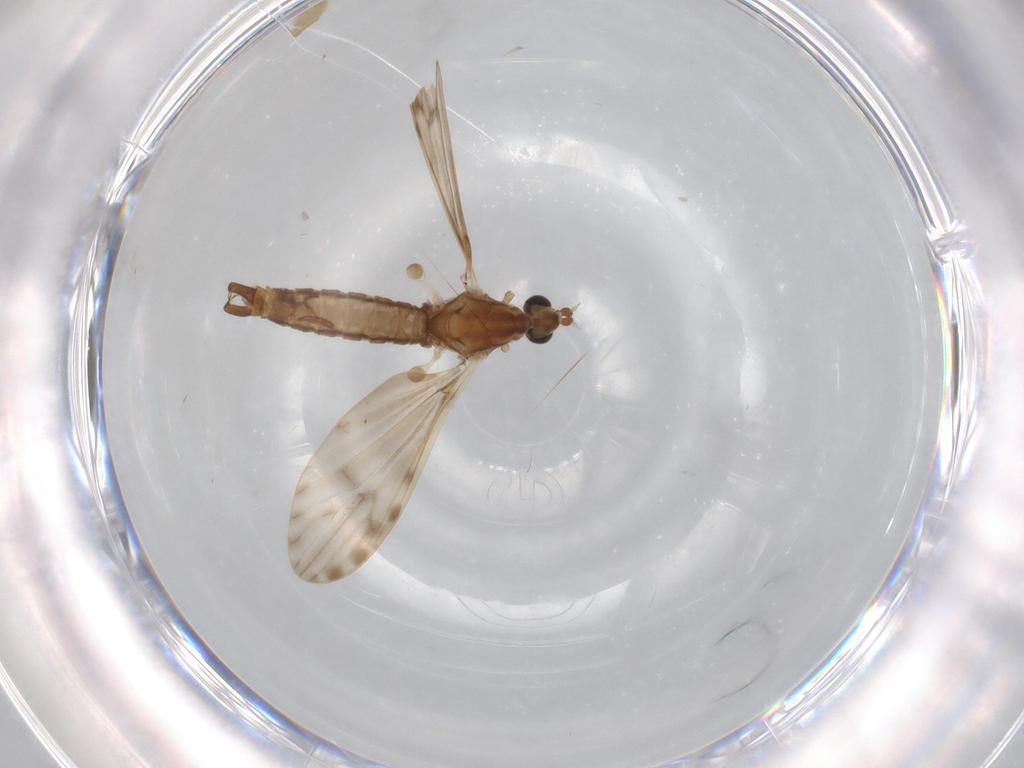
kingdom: Animalia
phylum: Arthropoda
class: Insecta
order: Diptera
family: Limoniidae
